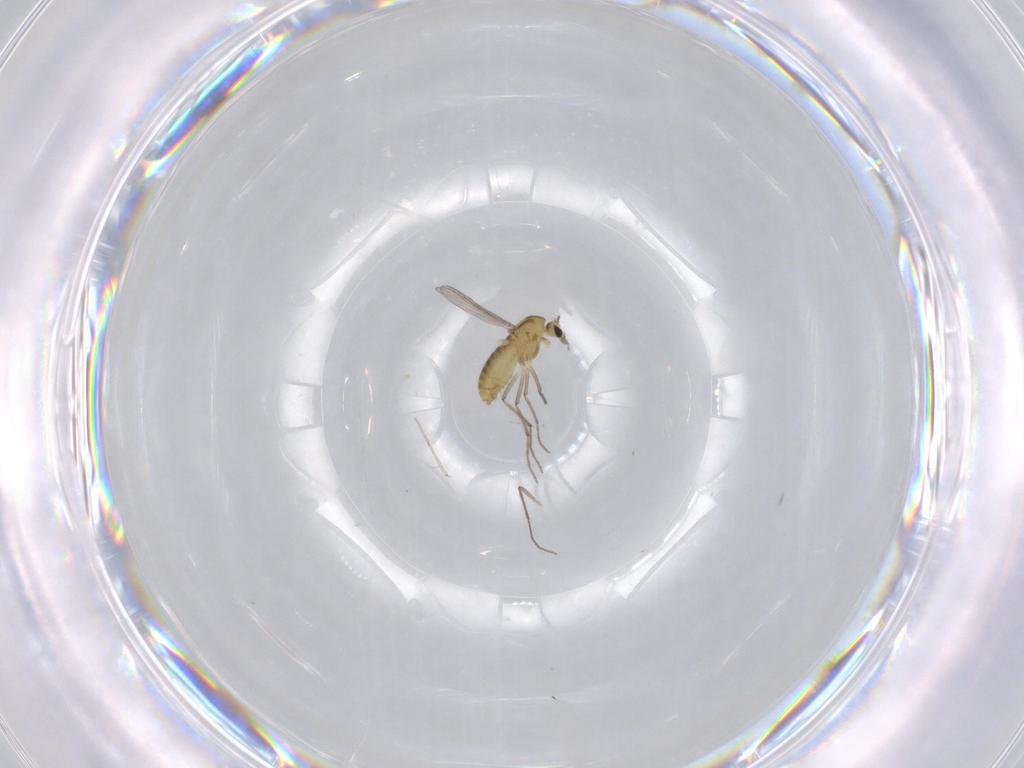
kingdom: Animalia
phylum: Arthropoda
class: Insecta
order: Diptera
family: Chironomidae
